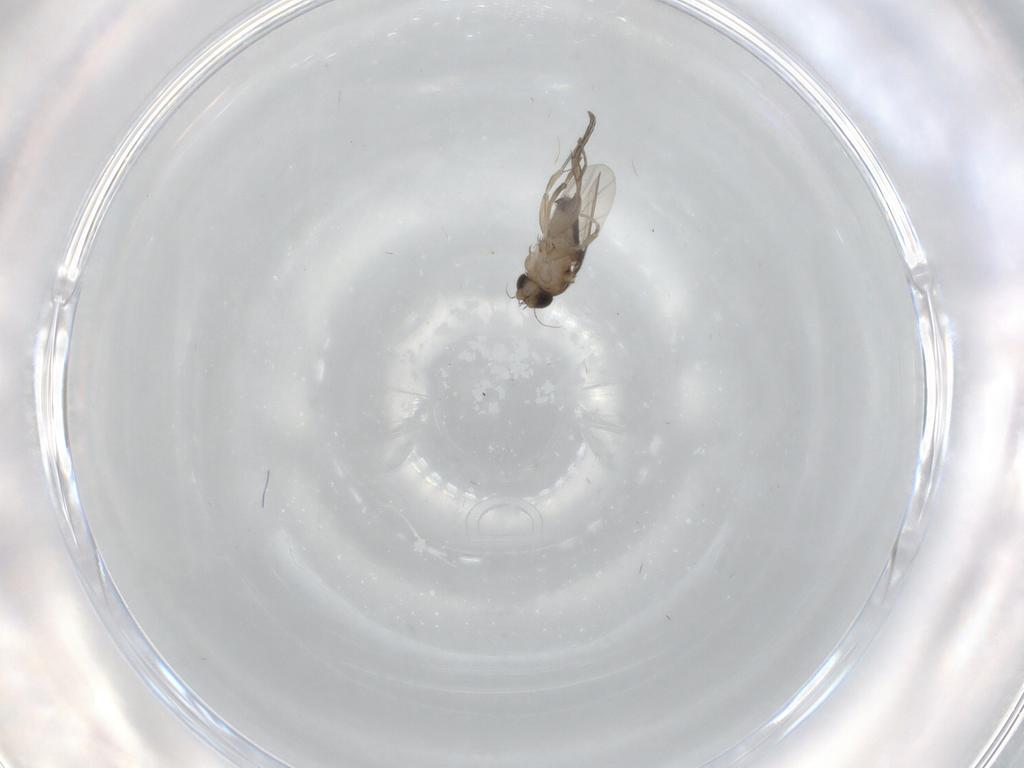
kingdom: Animalia
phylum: Arthropoda
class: Insecta
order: Diptera
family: Phoridae
